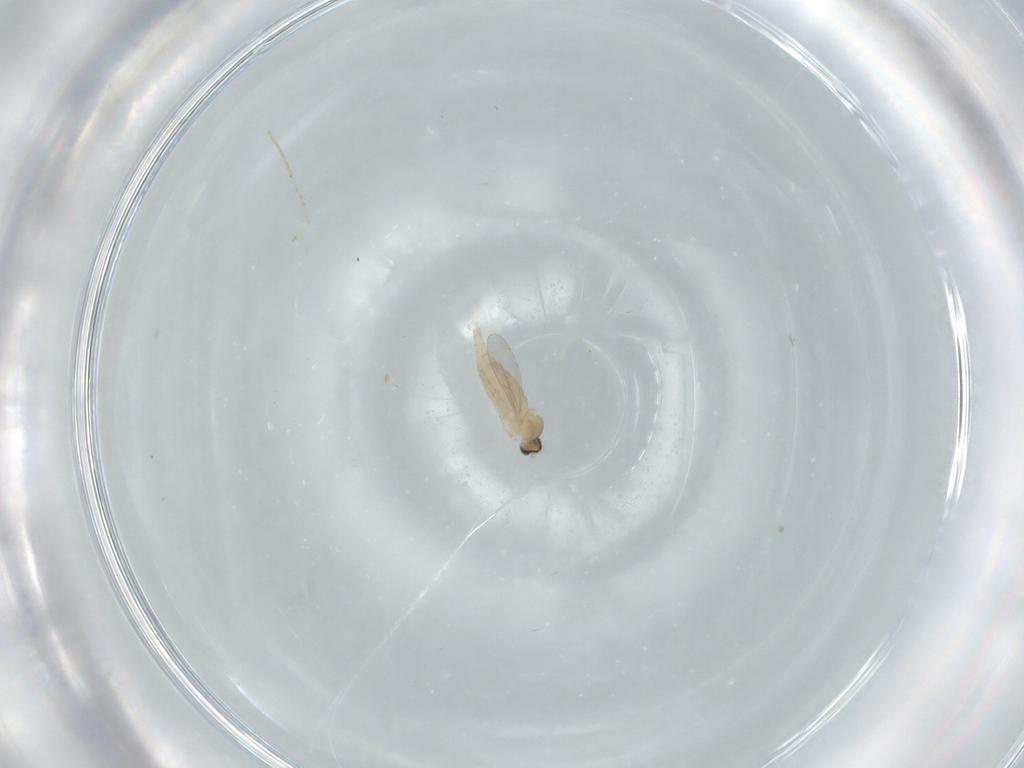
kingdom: Animalia
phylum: Arthropoda
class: Insecta
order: Diptera
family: Cecidomyiidae
